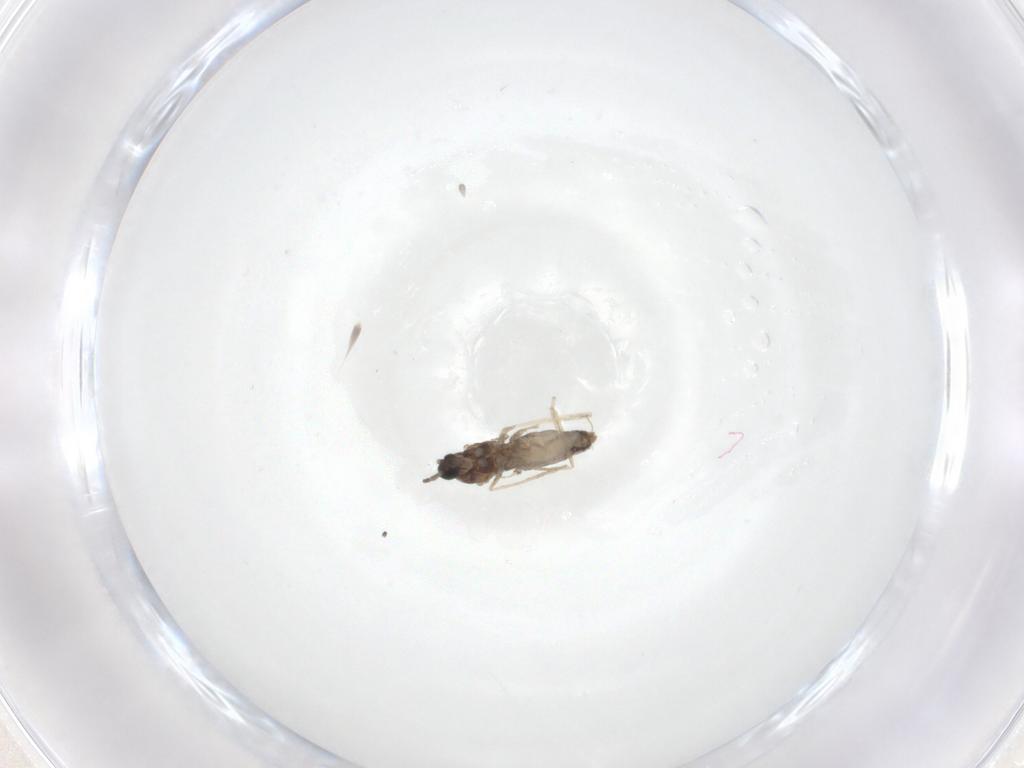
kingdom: Animalia
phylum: Arthropoda
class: Insecta
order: Diptera
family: Cecidomyiidae
